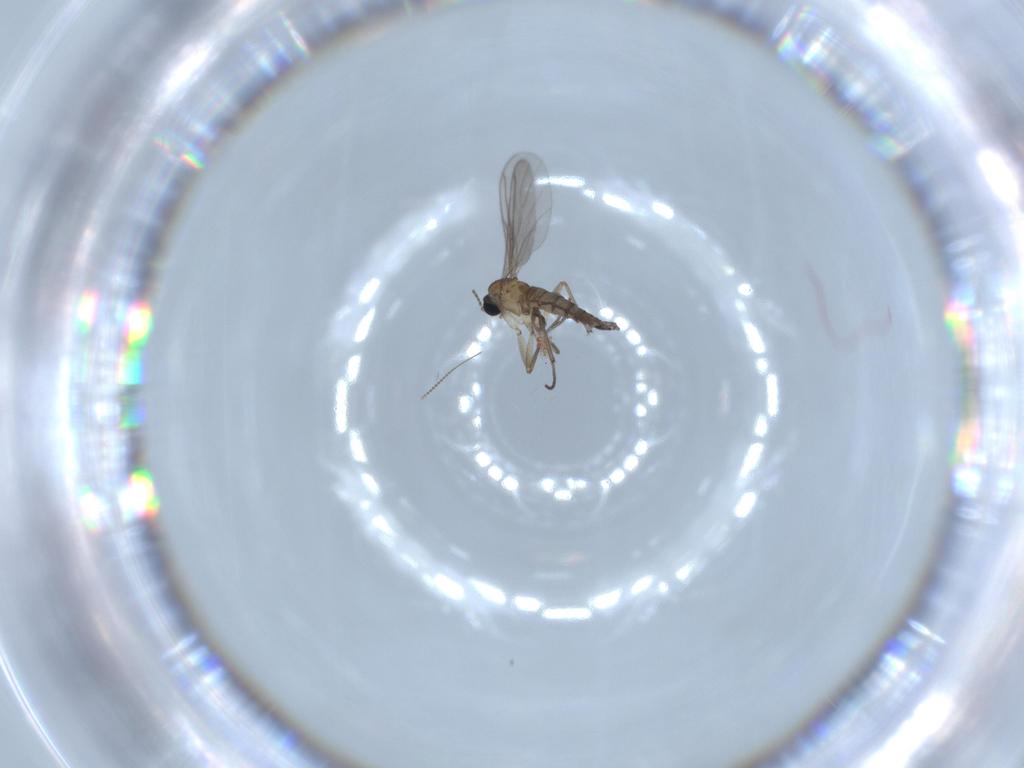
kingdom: Animalia
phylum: Arthropoda
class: Insecta
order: Diptera
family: Sciaridae
